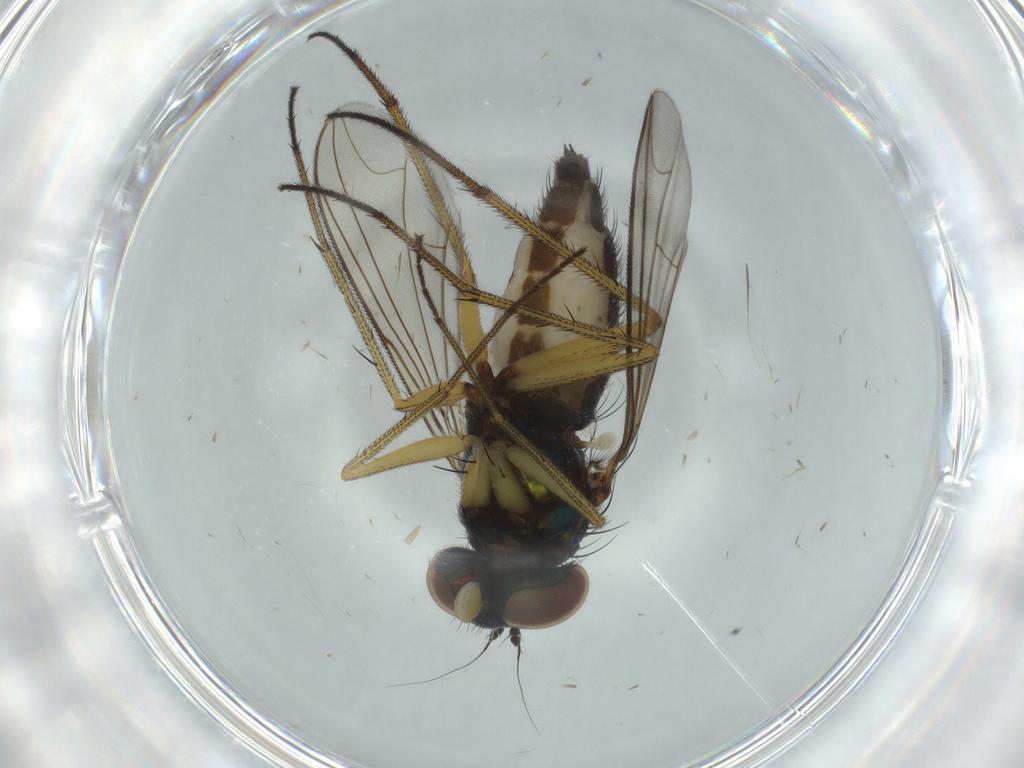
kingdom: Animalia
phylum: Arthropoda
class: Insecta
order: Diptera
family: Dolichopodidae
